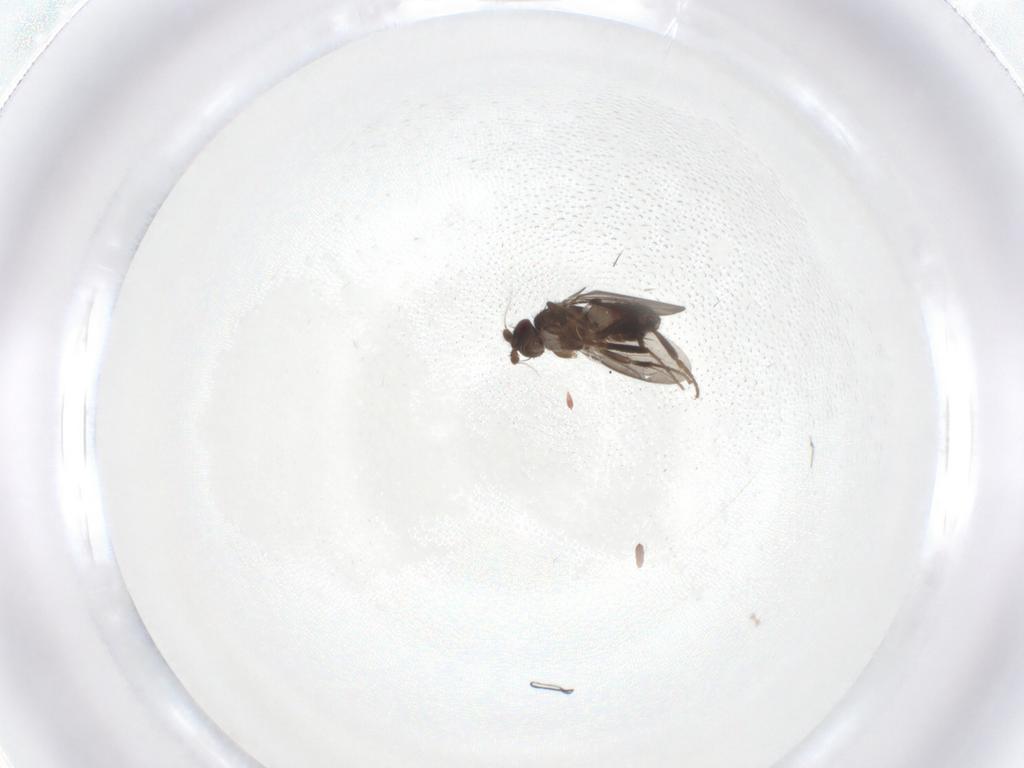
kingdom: Animalia
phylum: Arthropoda
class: Insecta
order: Diptera
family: Sphaeroceridae
